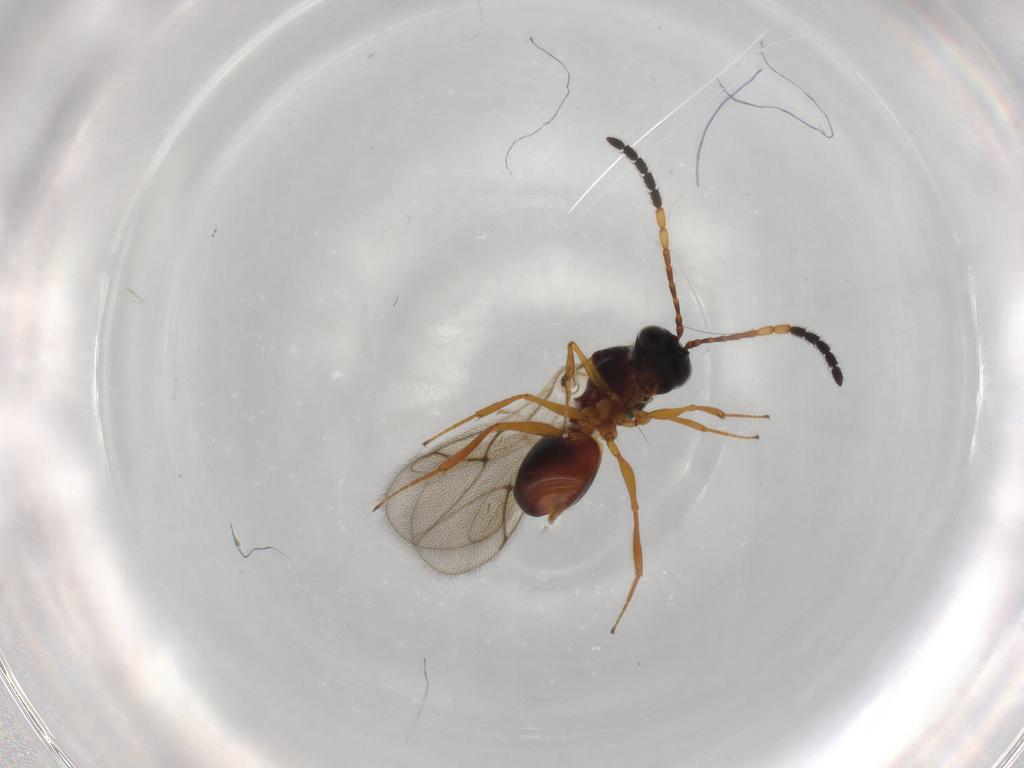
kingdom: Animalia
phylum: Arthropoda
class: Insecta
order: Hymenoptera
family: Figitidae
